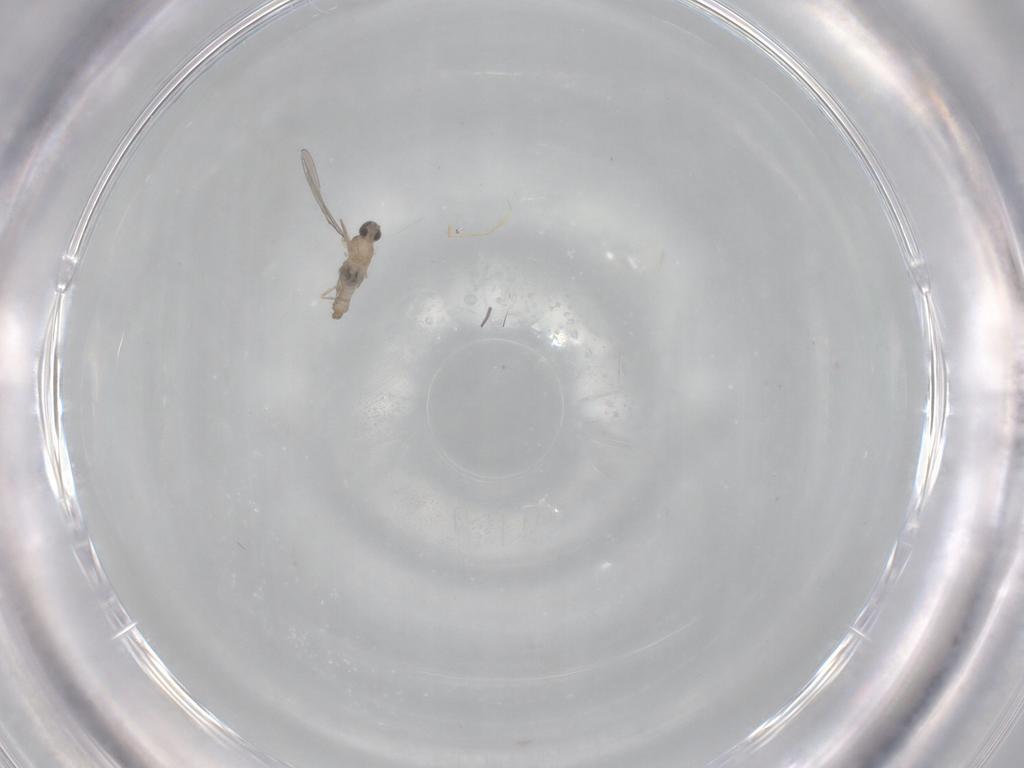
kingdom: Animalia
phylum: Arthropoda
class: Insecta
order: Diptera
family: Cecidomyiidae
